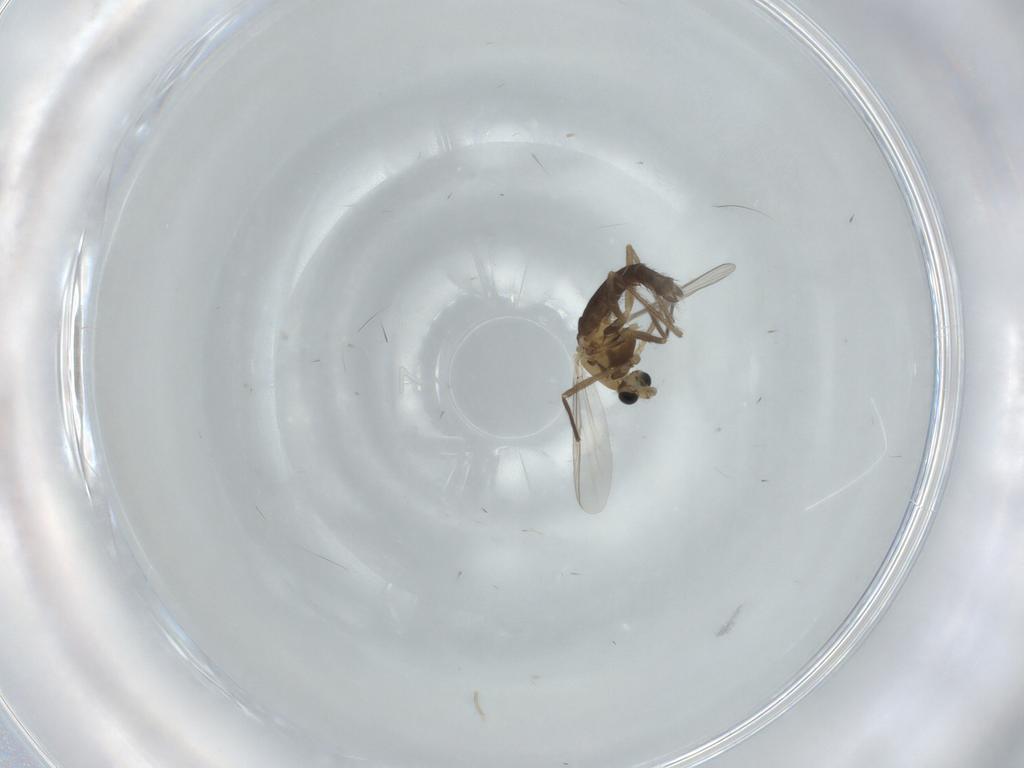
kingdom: Animalia
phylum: Arthropoda
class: Insecta
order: Diptera
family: Chironomidae
